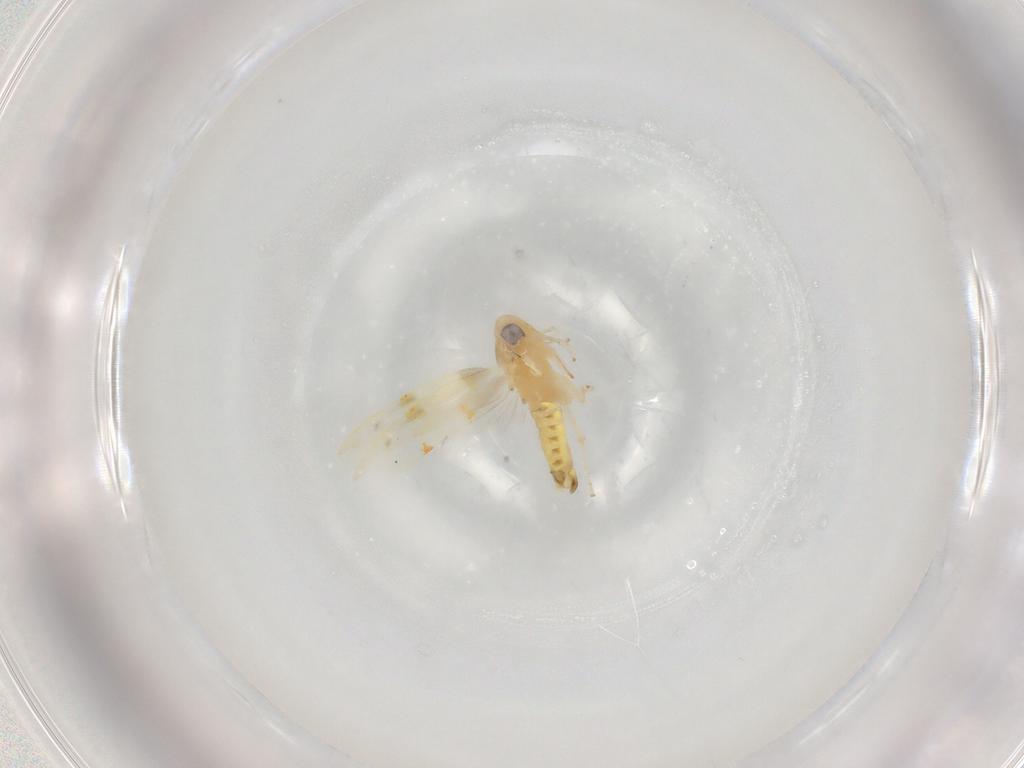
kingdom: Animalia
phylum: Arthropoda
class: Insecta
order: Hemiptera
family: Cicadellidae
